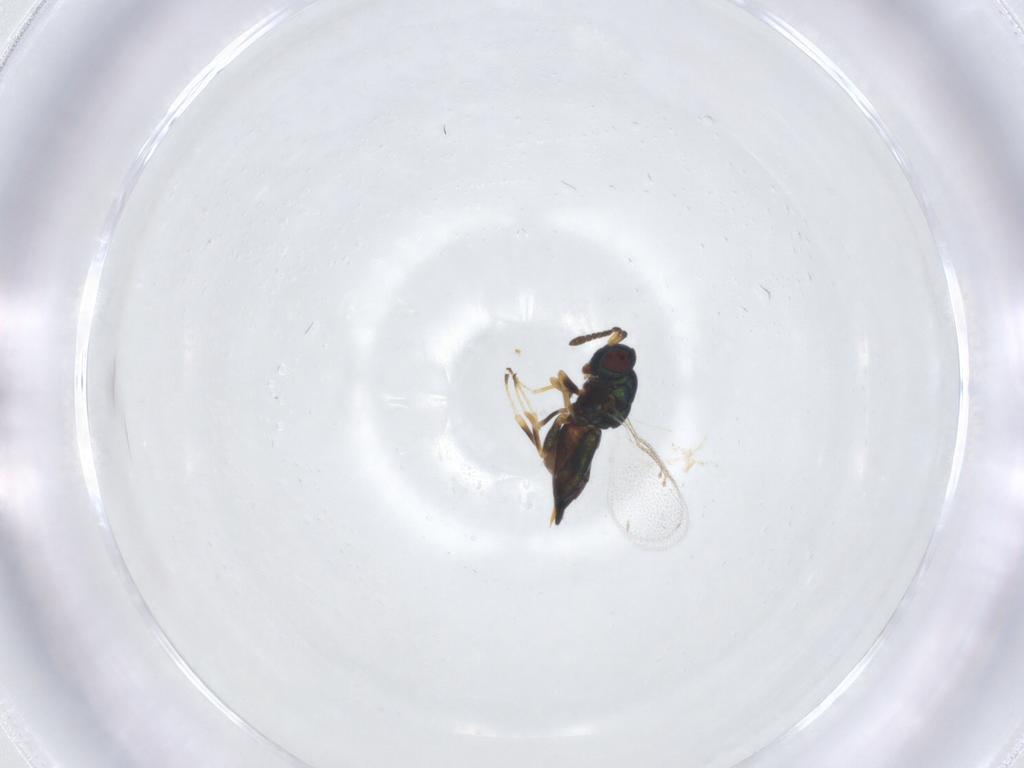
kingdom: Animalia
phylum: Arthropoda
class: Insecta
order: Hymenoptera
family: Platygastridae
